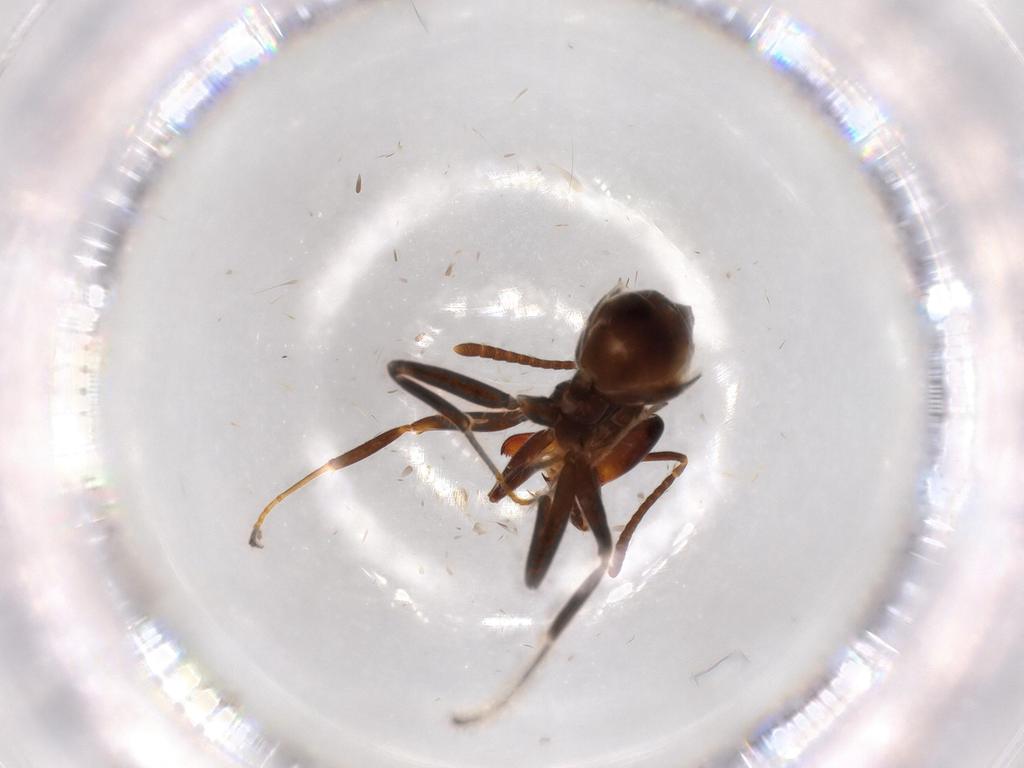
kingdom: Animalia
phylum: Arthropoda
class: Insecta
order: Hymenoptera
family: Formicidae
